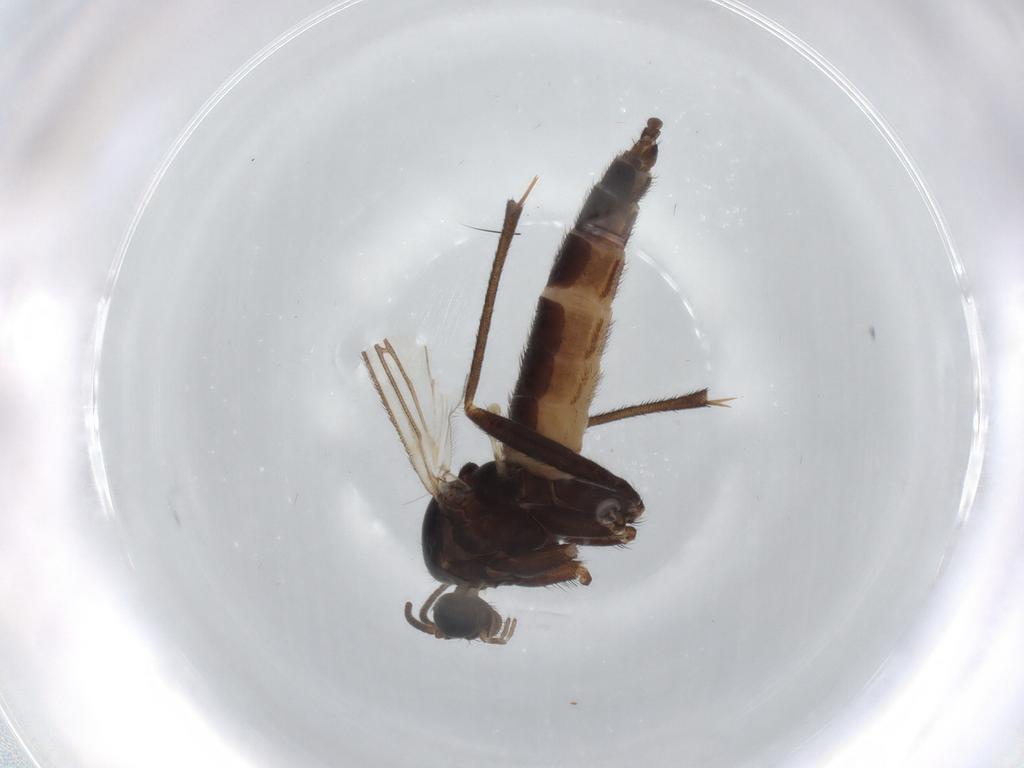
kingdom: Animalia
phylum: Arthropoda
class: Insecta
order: Diptera
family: Sciaridae
